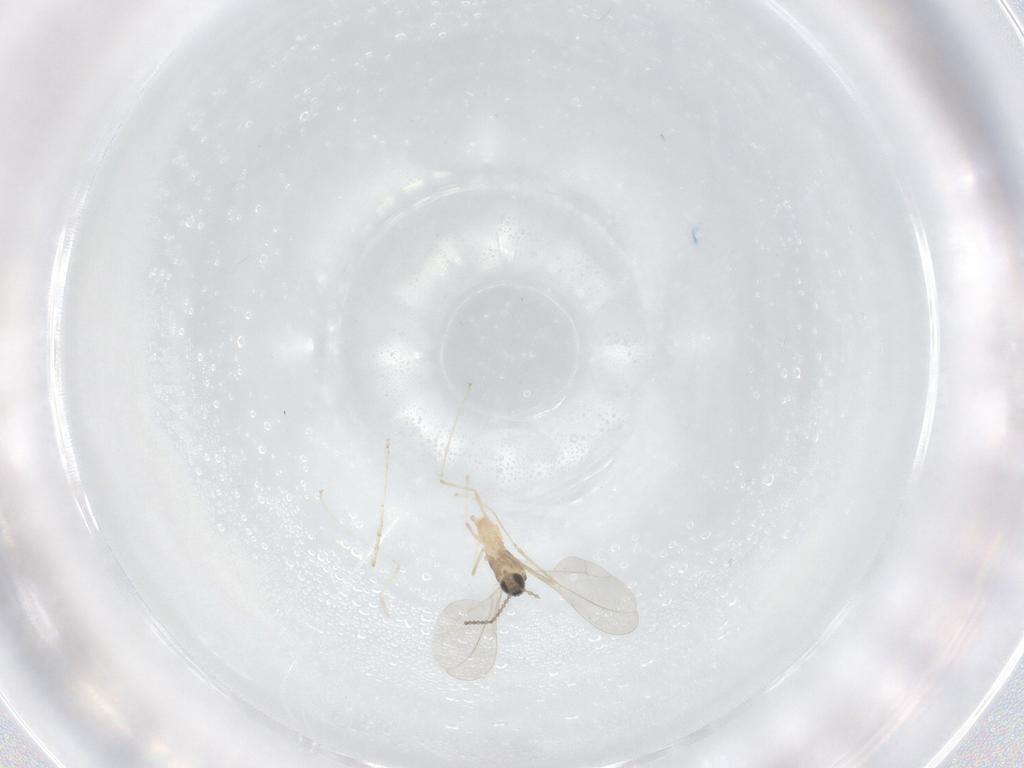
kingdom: Animalia
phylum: Arthropoda
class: Insecta
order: Diptera
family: Cecidomyiidae
